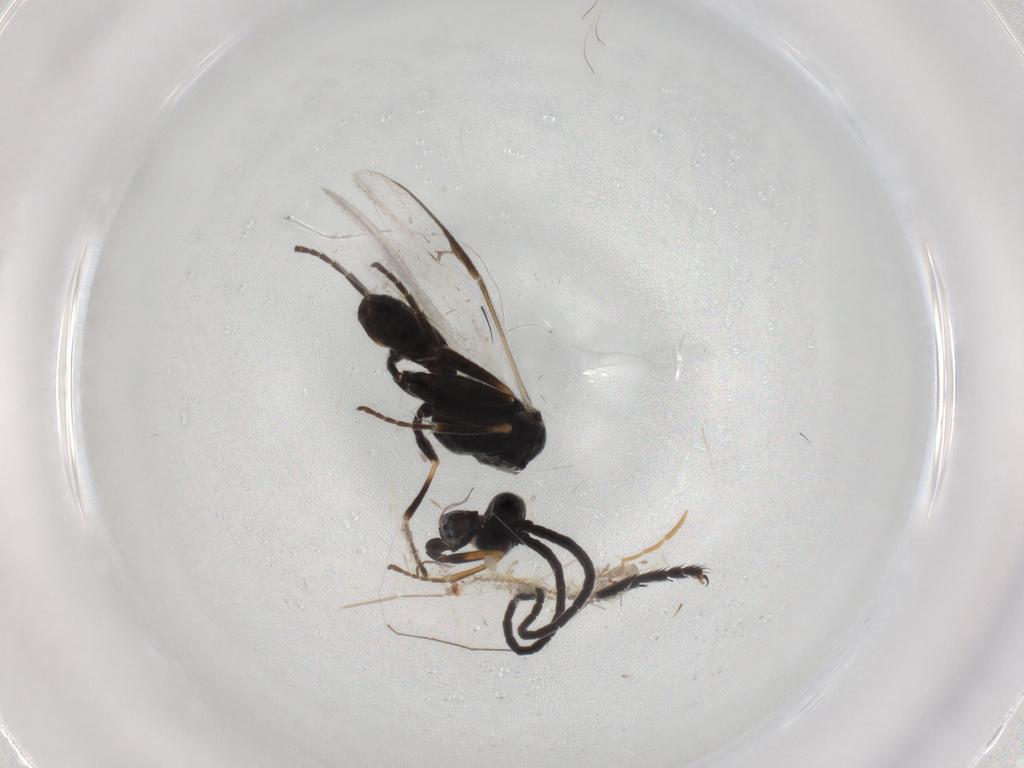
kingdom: Animalia
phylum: Arthropoda
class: Insecta
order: Hymenoptera
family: Braconidae
